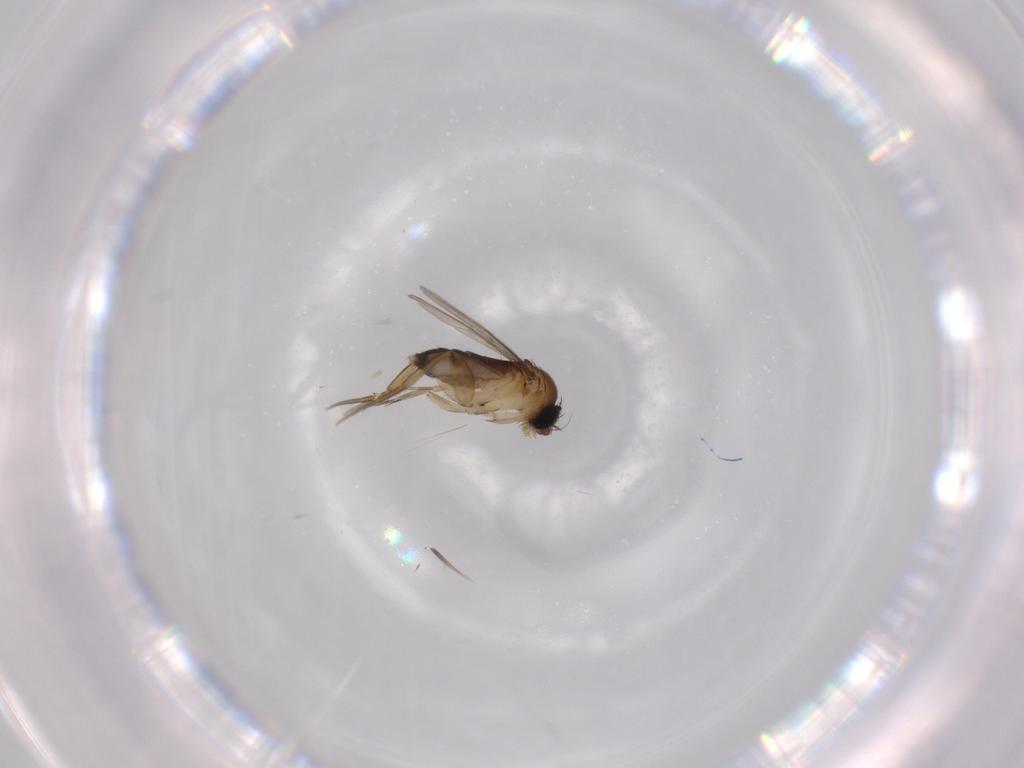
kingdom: Animalia
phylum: Arthropoda
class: Insecta
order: Diptera
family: Phoridae
